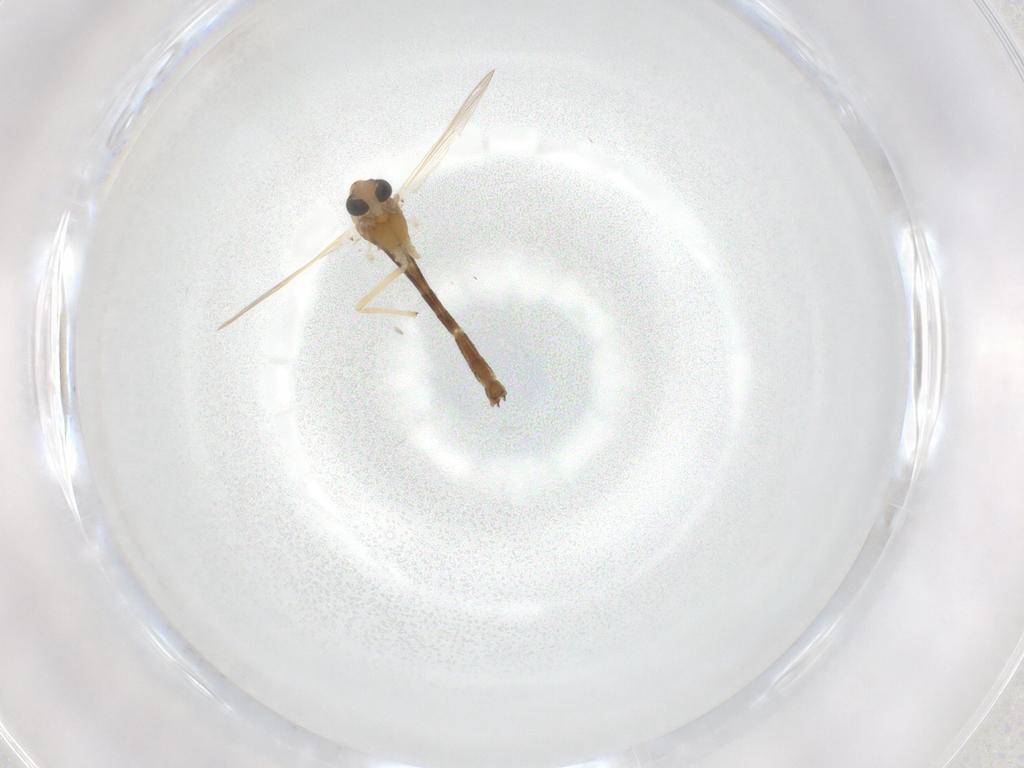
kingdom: Animalia
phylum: Arthropoda
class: Insecta
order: Diptera
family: Chironomidae
